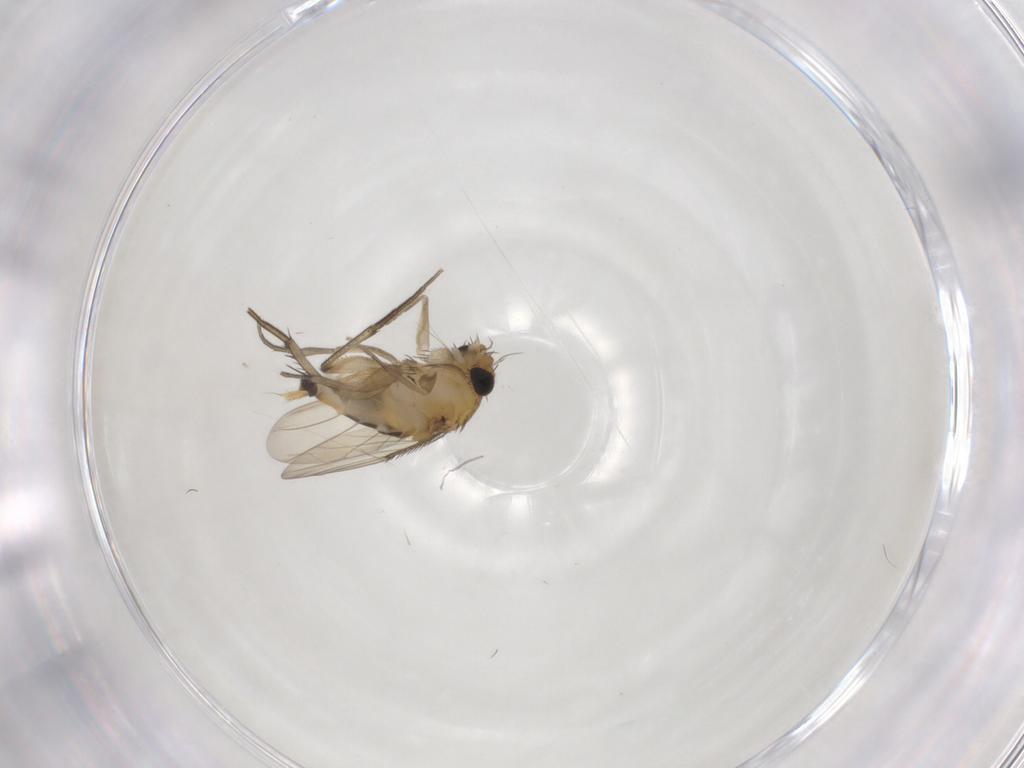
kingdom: Animalia
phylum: Arthropoda
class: Insecta
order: Diptera
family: Phoridae
